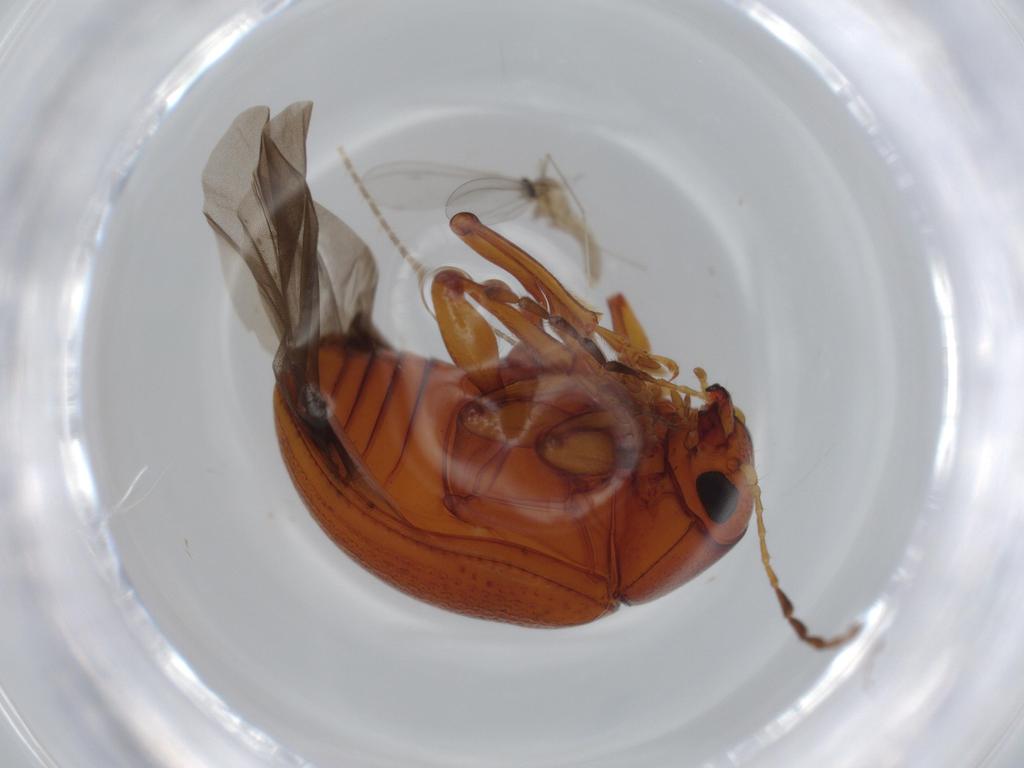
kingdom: Animalia
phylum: Arthropoda
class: Insecta
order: Coleoptera
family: Chrysomelidae
